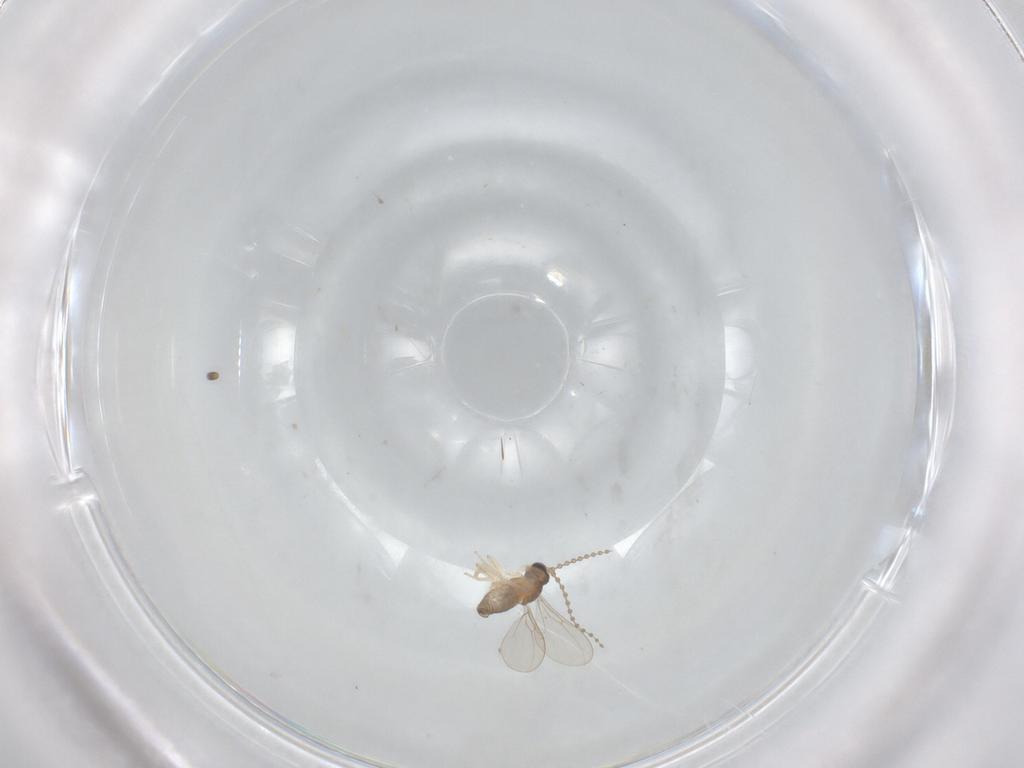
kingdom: Animalia
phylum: Arthropoda
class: Insecta
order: Diptera
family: Cecidomyiidae
